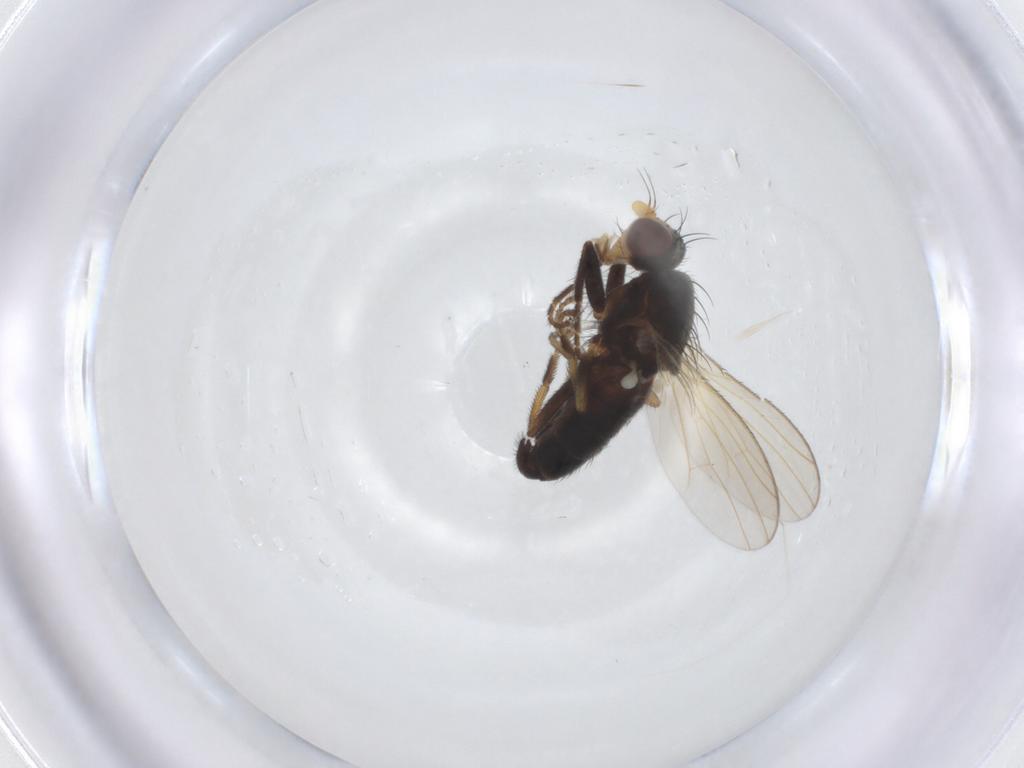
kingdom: Animalia
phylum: Arthropoda
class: Insecta
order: Diptera
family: Heleomyzidae
